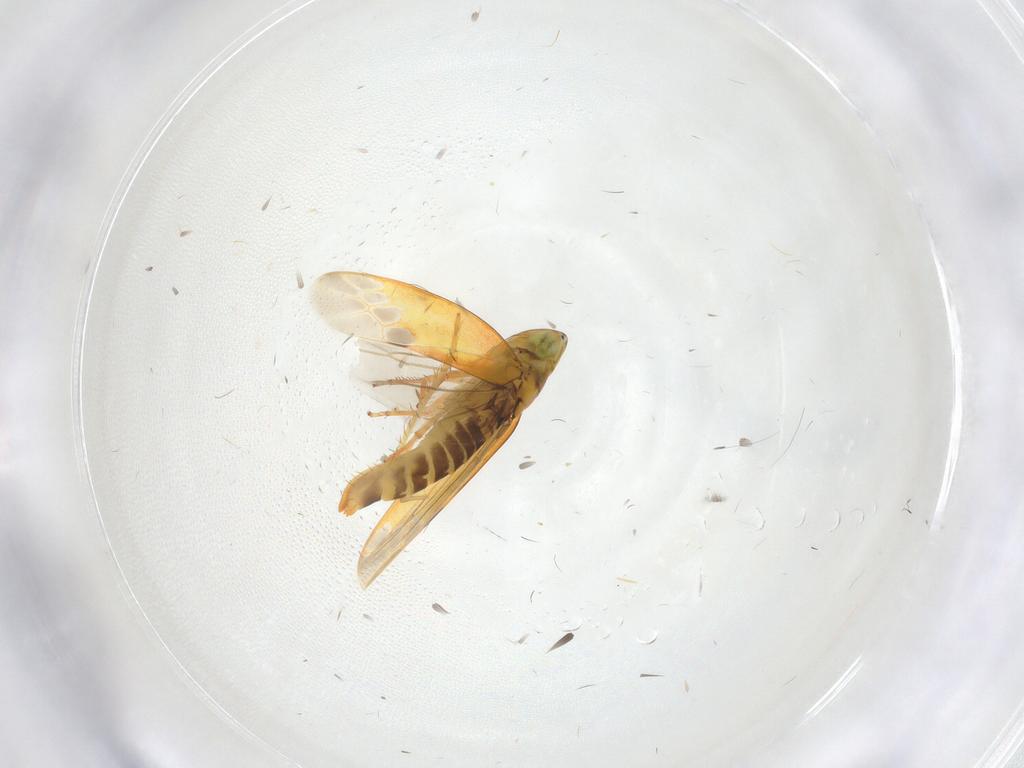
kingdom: Animalia
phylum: Arthropoda
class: Insecta
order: Hemiptera
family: Cicadellidae
